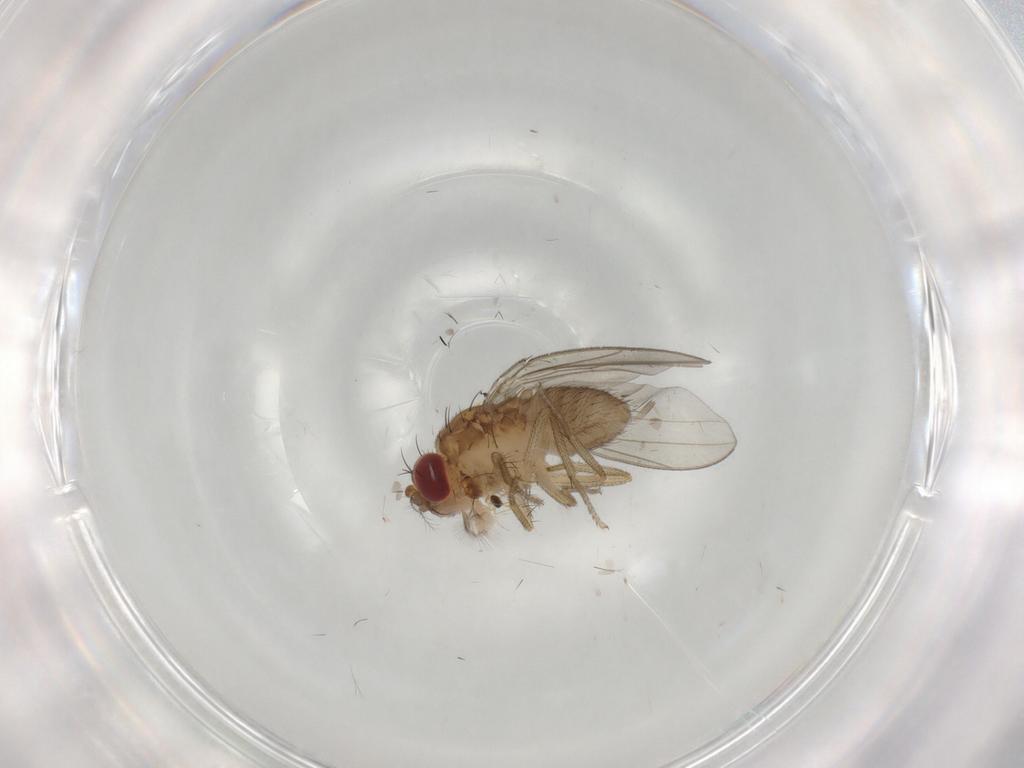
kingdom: Animalia
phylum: Arthropoda
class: Insecta
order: Diptera
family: Drosophilidae
